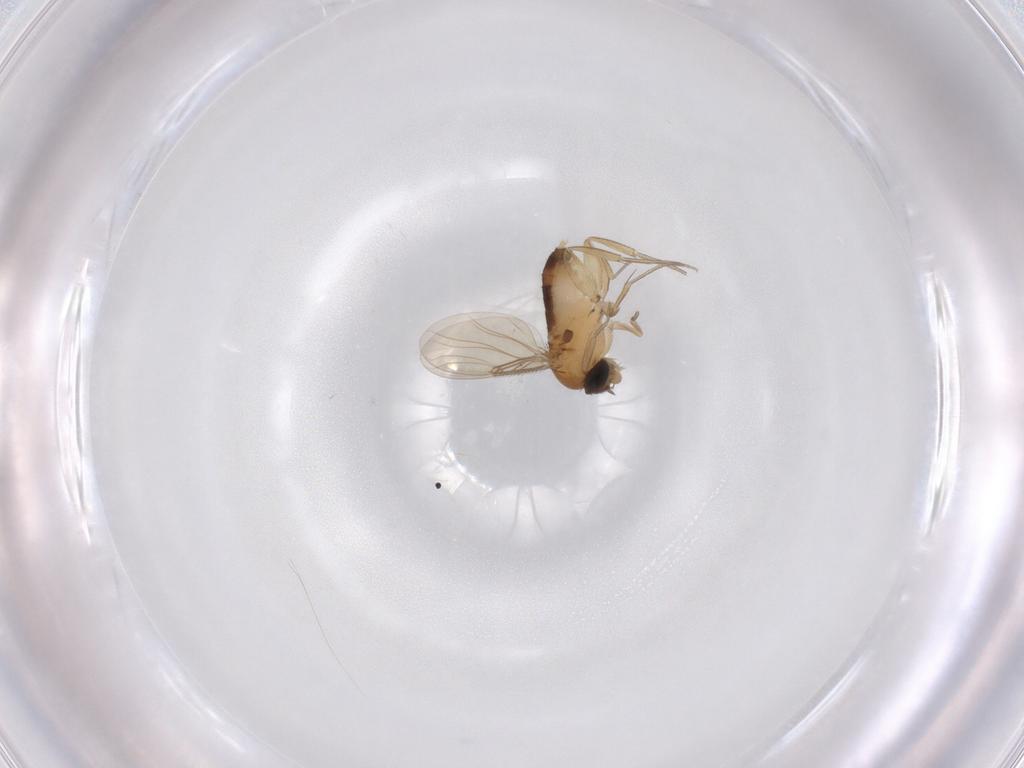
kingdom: Animalia
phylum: Arthropoda
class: Insecta
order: Diptera
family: Phoridae
